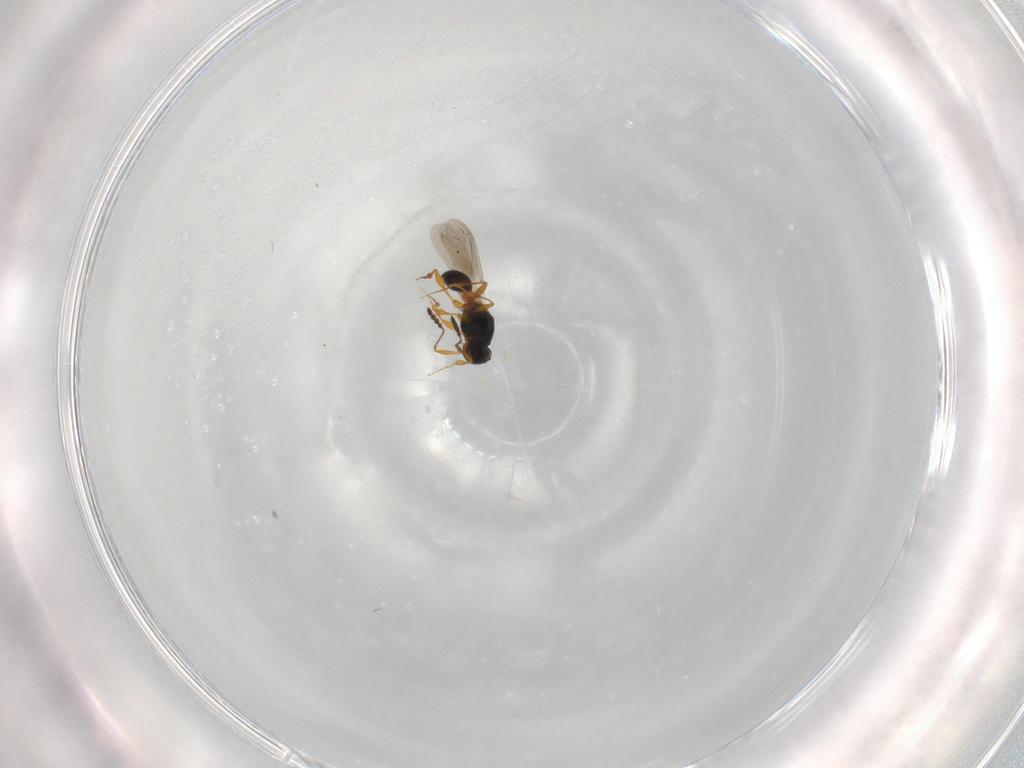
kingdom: Animalia
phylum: Arthropoda
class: Insecta
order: Hymenoptera
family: Platygastridae
